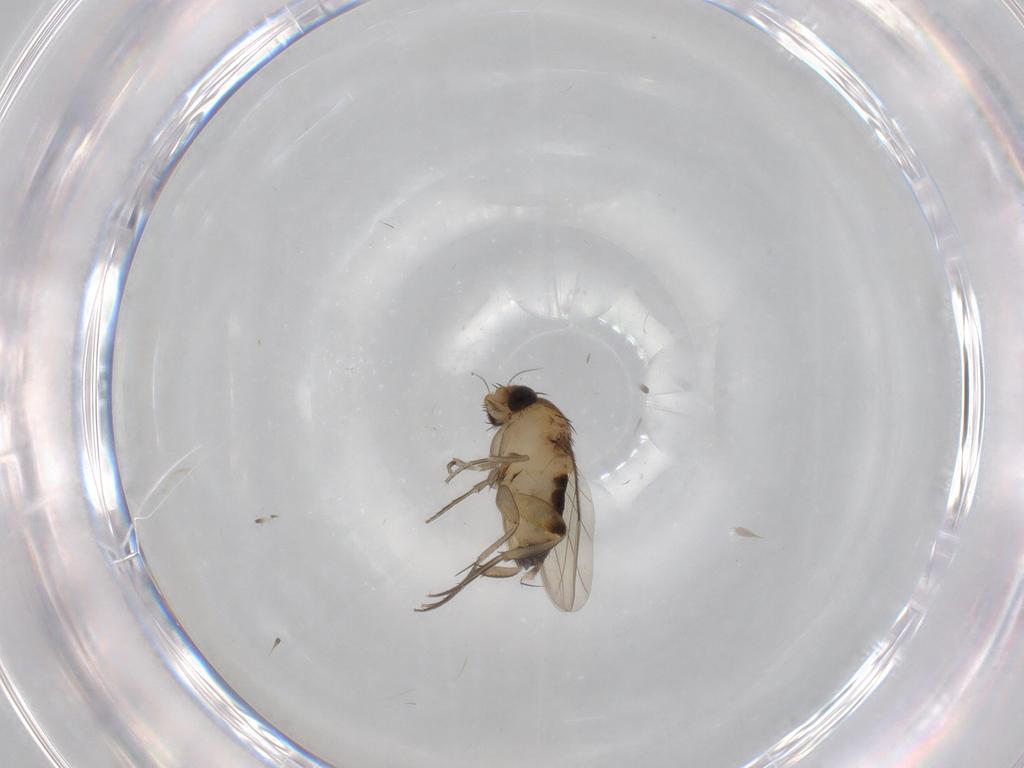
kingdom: Animalia
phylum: Arthropoda
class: Insecta
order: Diptera
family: Phoridae
